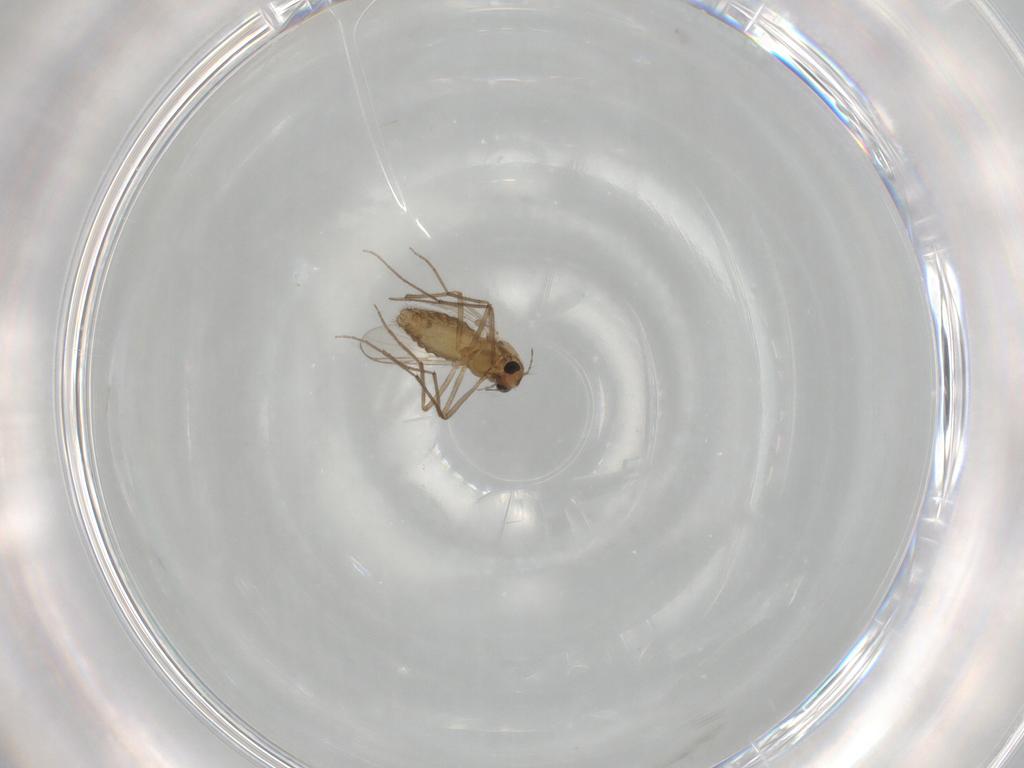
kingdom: Animalia
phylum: Arthropoda
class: Insecta
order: Diptera
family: Chironomidae
